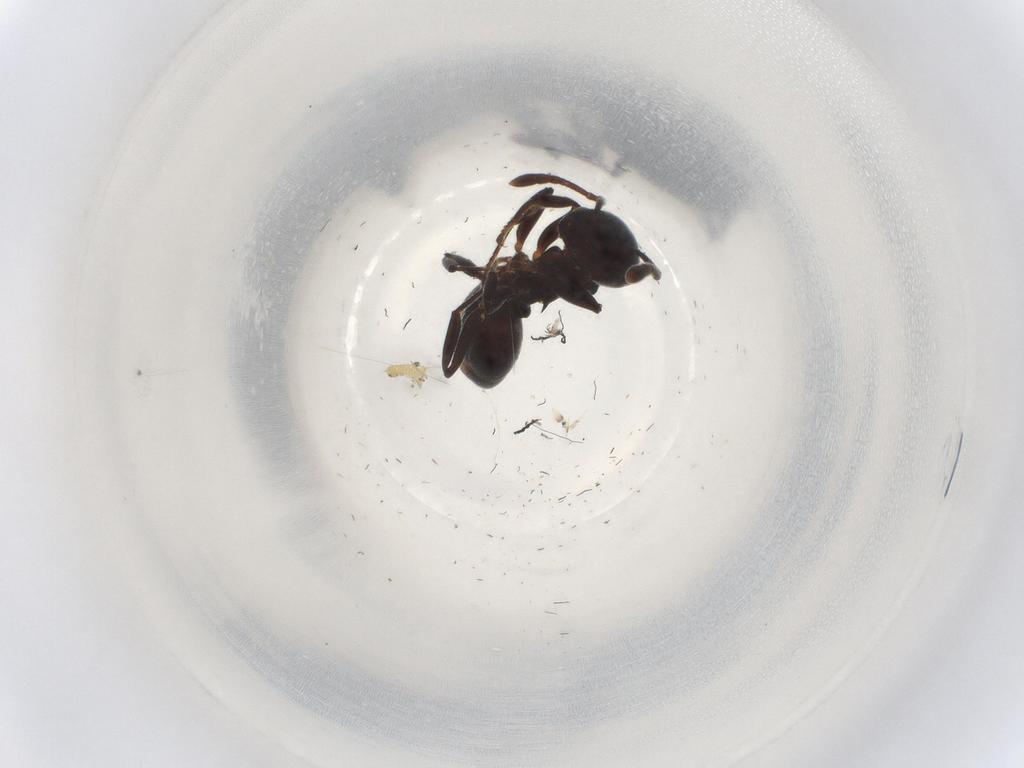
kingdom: Animalia
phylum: Arthropoda
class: Insecta
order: Hymenoptera
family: Formicidae
